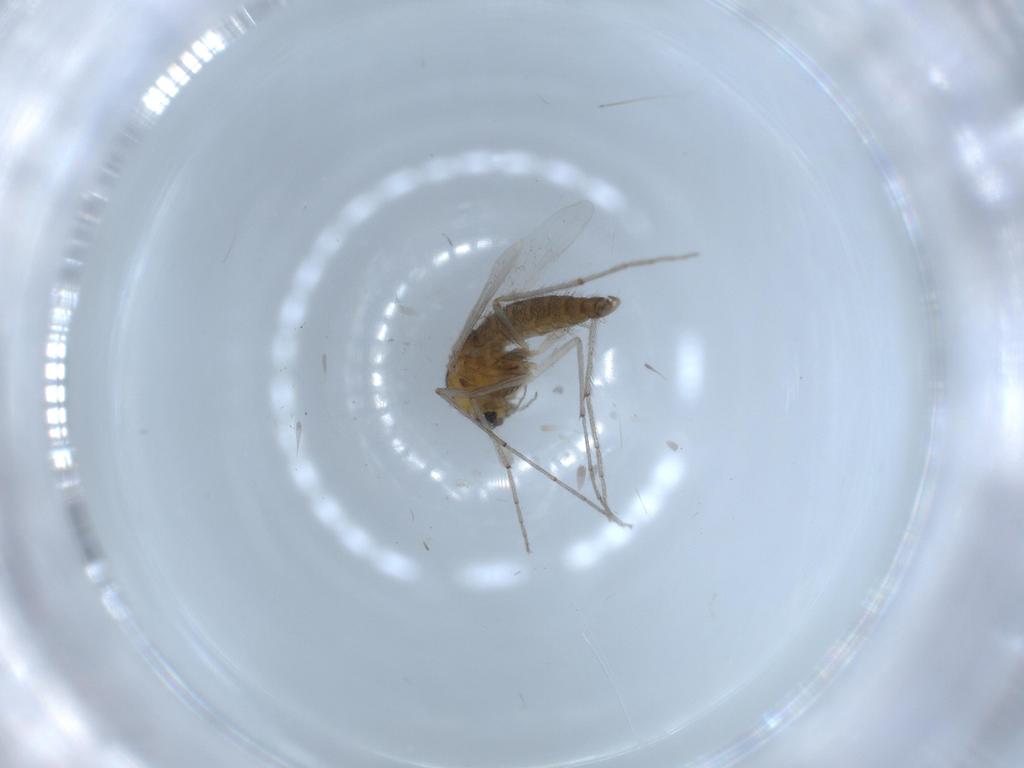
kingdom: Animalia
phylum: Arthropoda
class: Insecta
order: Diptera
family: Chironomidae
